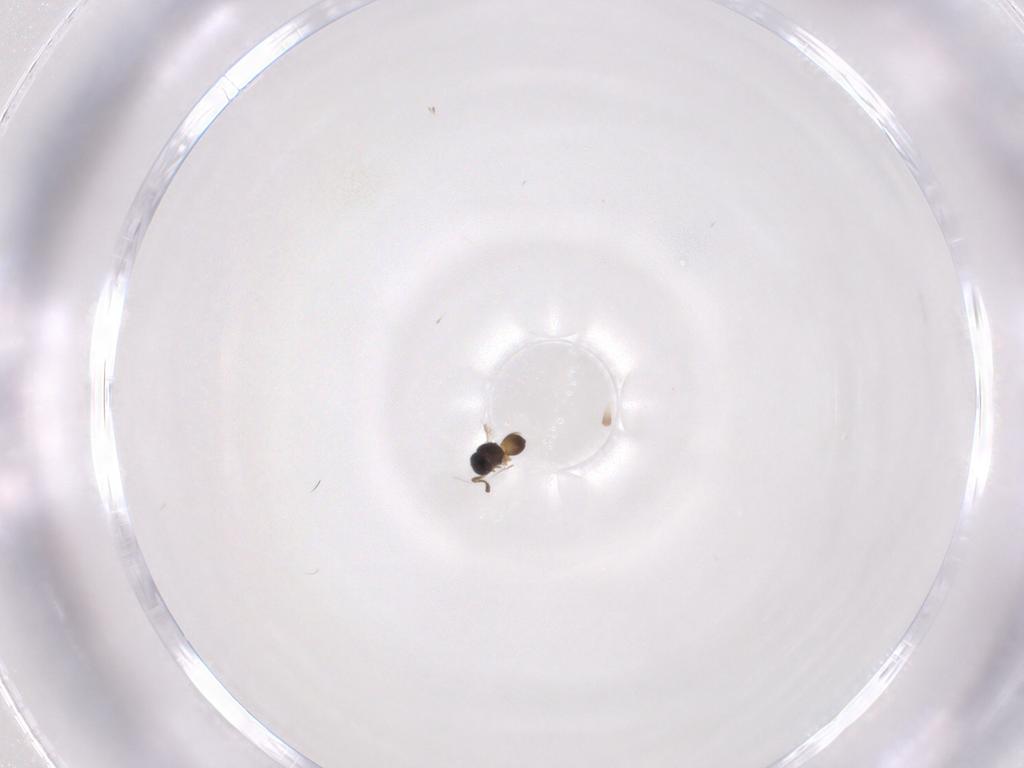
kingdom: Animalia
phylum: Arthropoda
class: Insecta
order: Hymenoptera
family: Scelionidae
